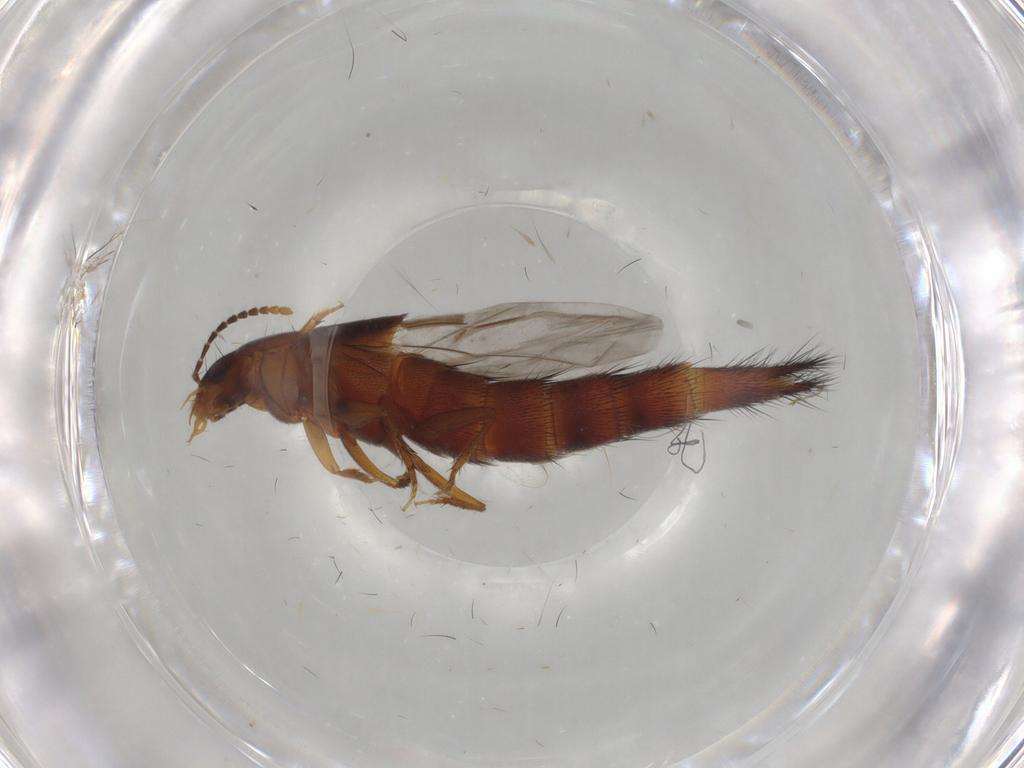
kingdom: Animalia
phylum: Arthropoda
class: Insecta
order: Coleoptera
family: Staphylinidae
